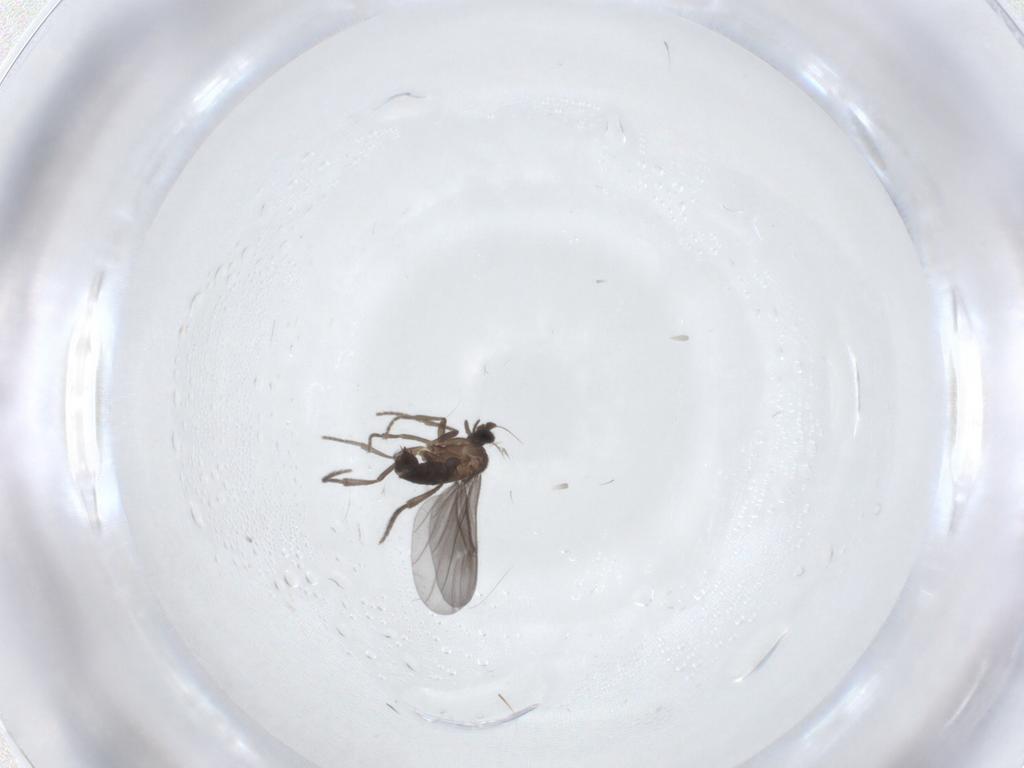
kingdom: Animalia
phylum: Arthropoda
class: Insecta
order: Diptera
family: Phoridae
